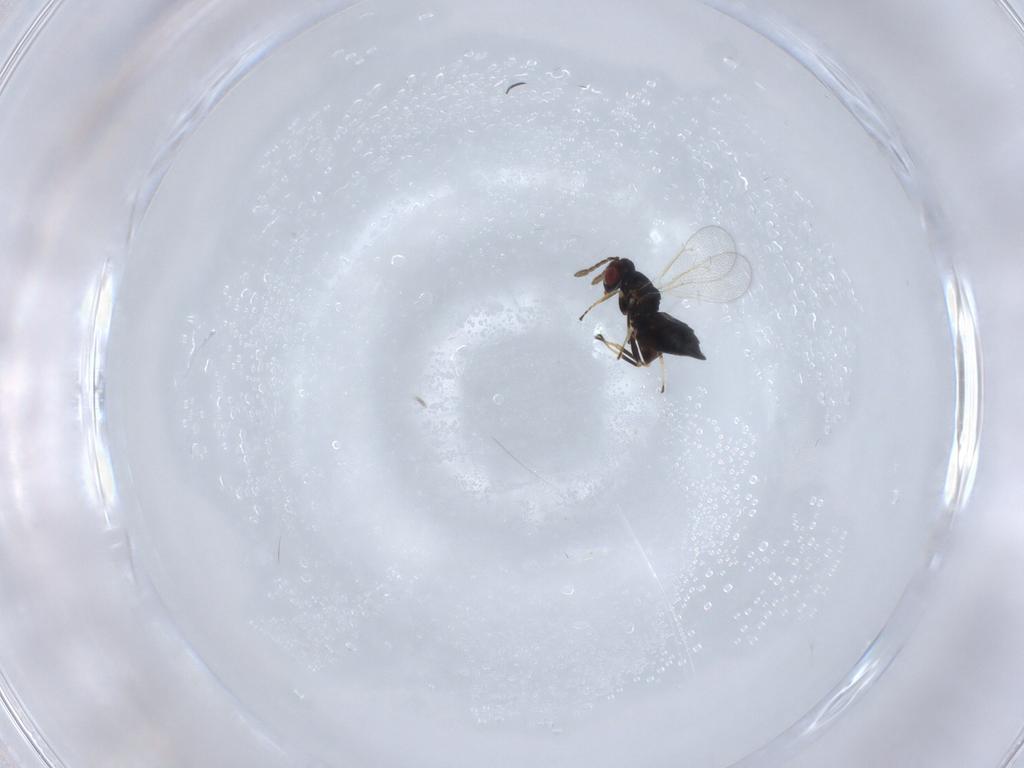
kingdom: Animalia
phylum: Arthropoda
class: Insecta
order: Hymenoptera
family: Eulophidae
